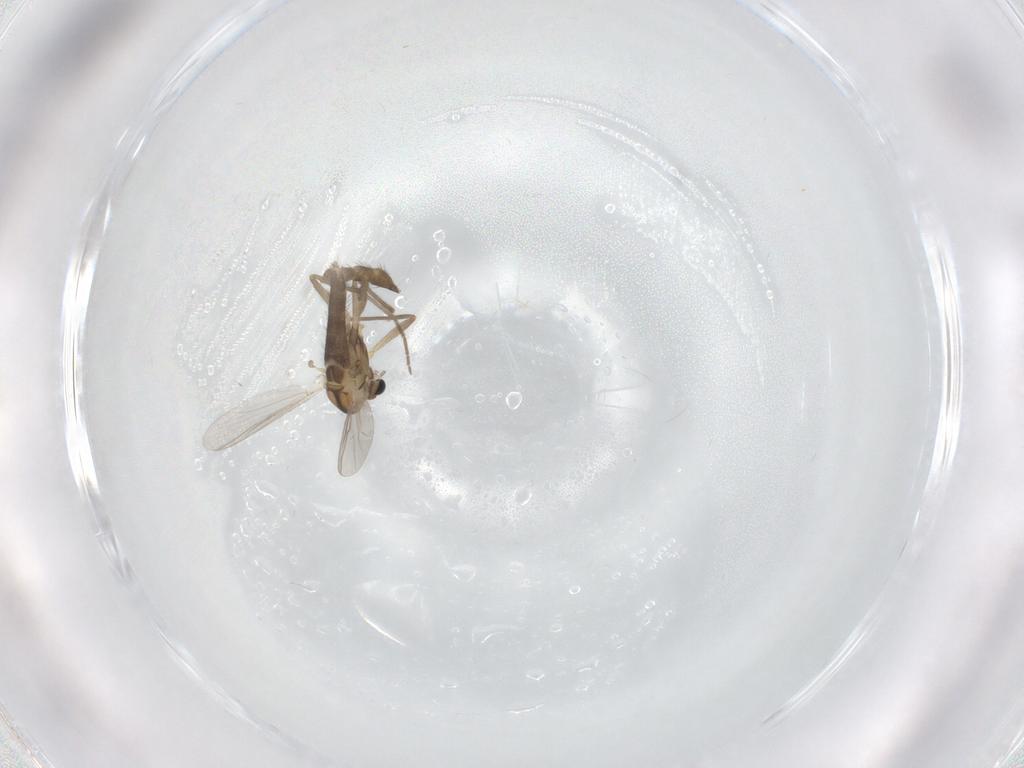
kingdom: Animalia
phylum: Arthropoda
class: Insecta
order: Diptera
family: Chironomidae
